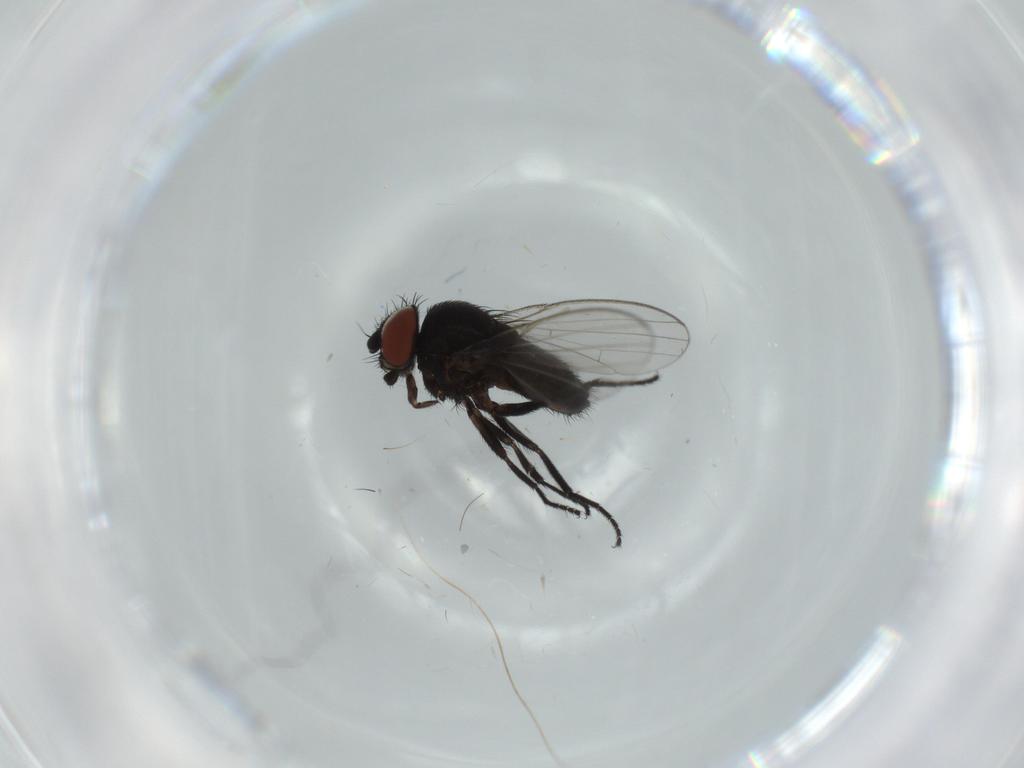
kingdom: Animalia
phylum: Arthropoda
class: Insecta
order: Diptera
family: Milichiidae
